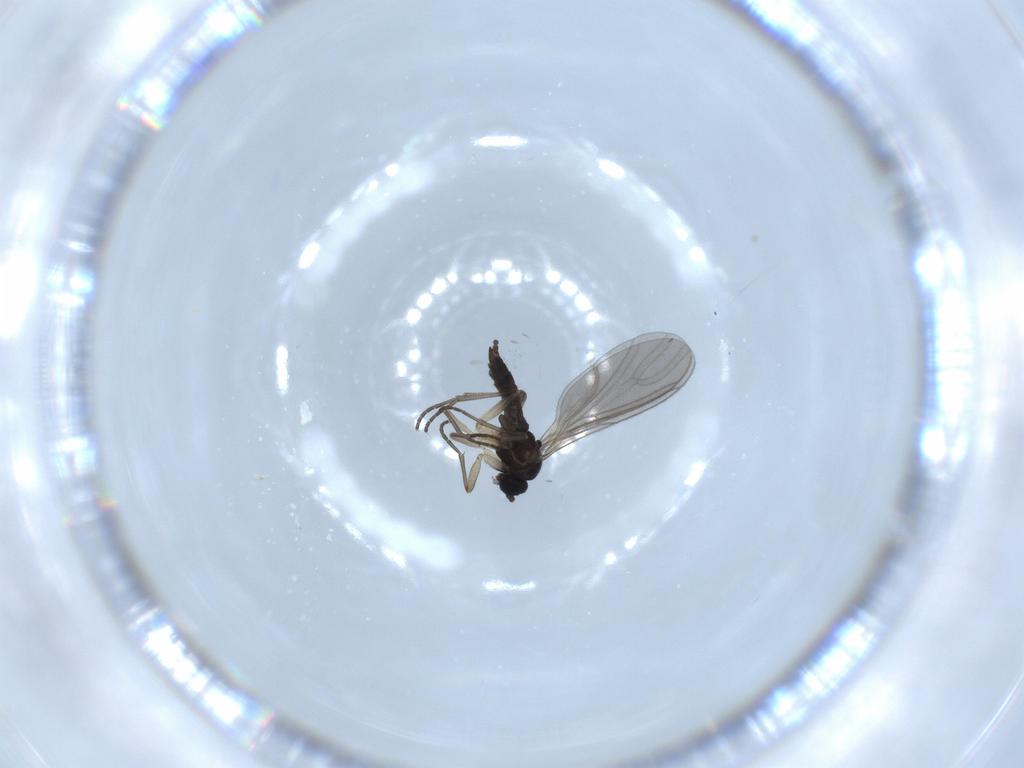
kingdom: Animalia
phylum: Arthropoda
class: Insecta
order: Diptera
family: Sciaridae
